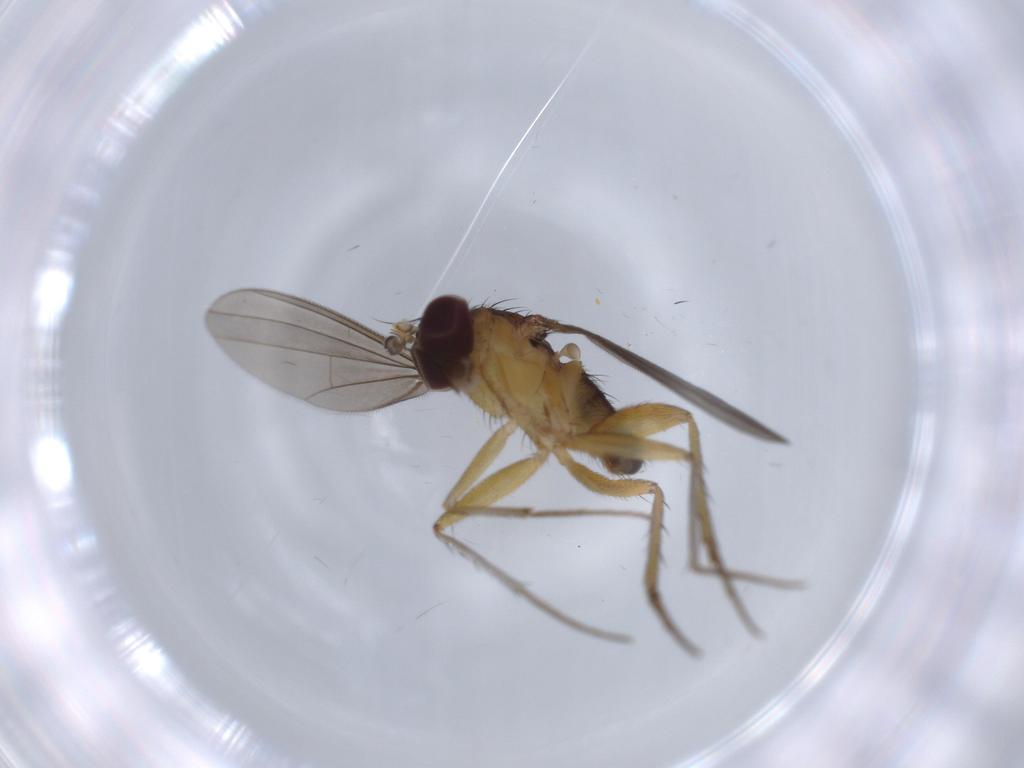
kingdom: Animalia
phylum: Arthropoda
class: Insecta
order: Diptera
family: Dolichopodidae
